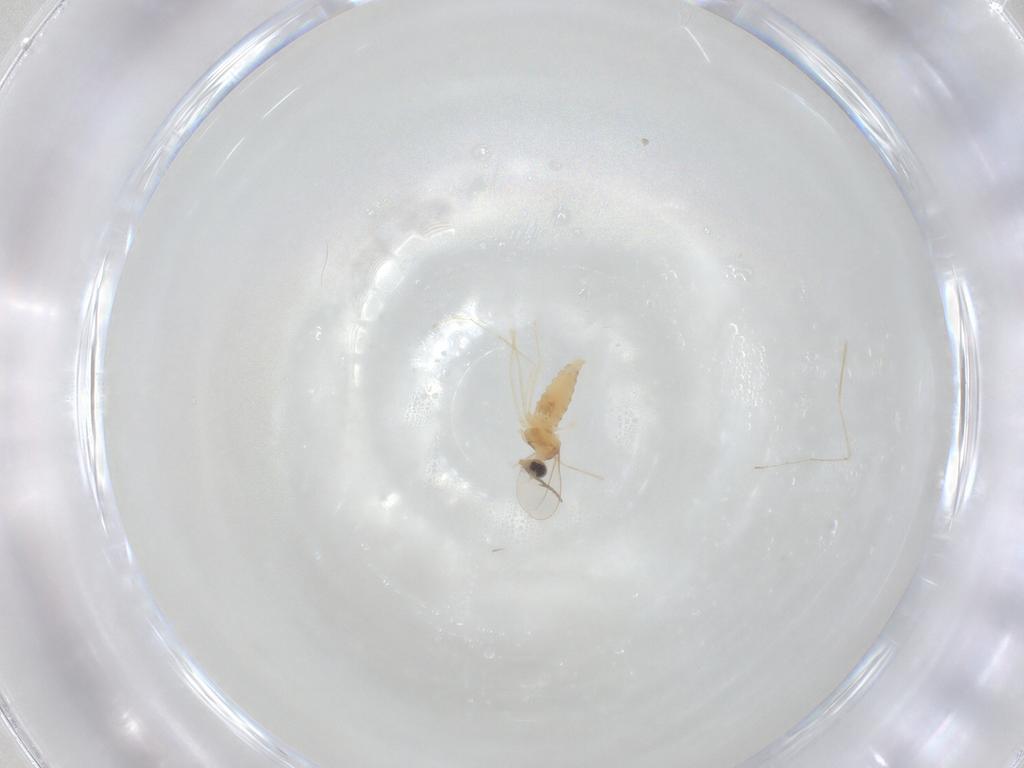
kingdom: Animalia
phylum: Arthropoda
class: Insecta
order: Diptera
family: Cecidomyiidae
